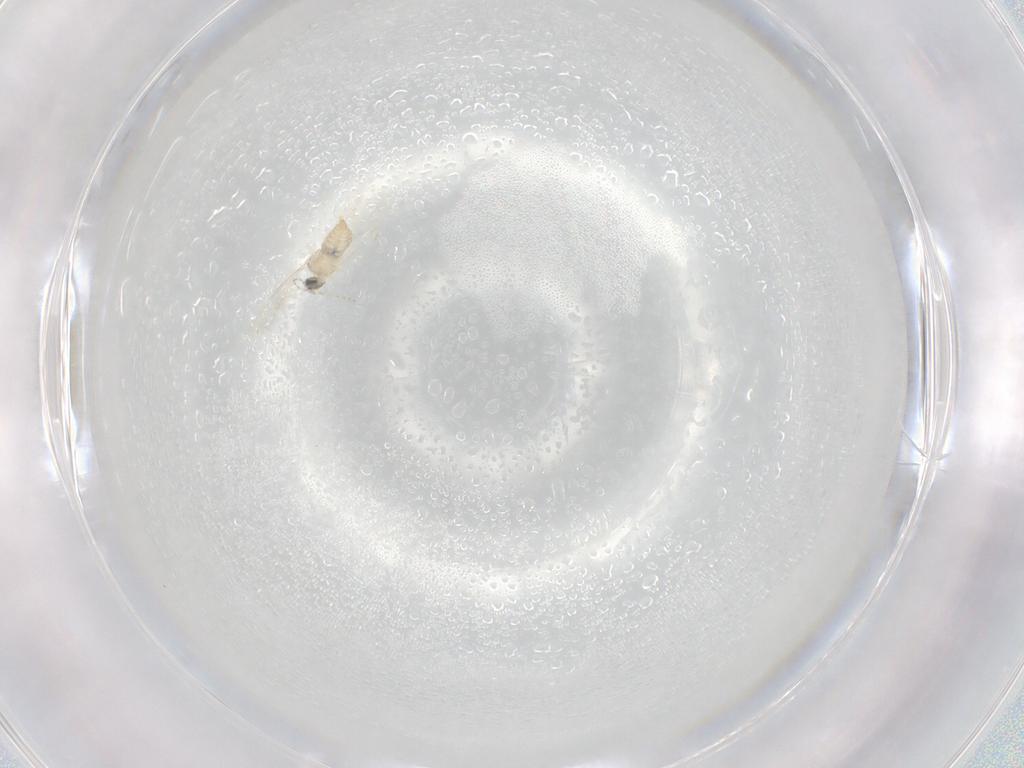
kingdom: Animalia
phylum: Arthropoda
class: Insecta
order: Diptera
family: Cecidomyiidae
